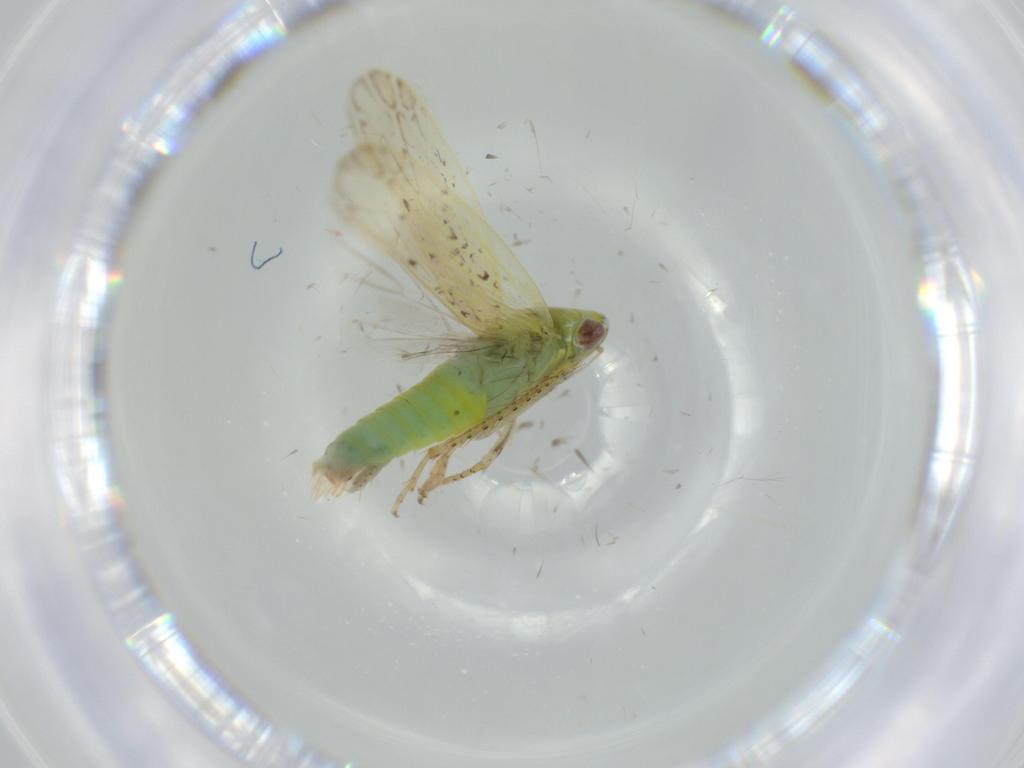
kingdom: Animalia
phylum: Arthropoda
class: Insecta
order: Hemiptera
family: Cicadellidae
